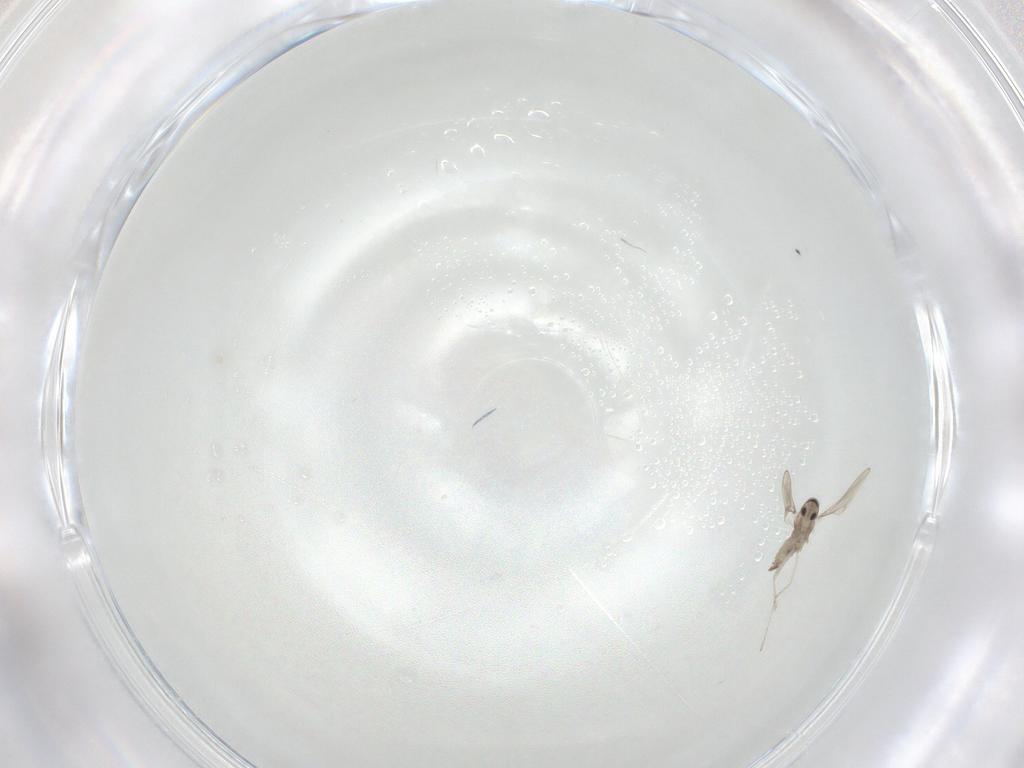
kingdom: Animalia
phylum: Arthropoda
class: Insecta
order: Diptera
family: Cecidomyiidae
